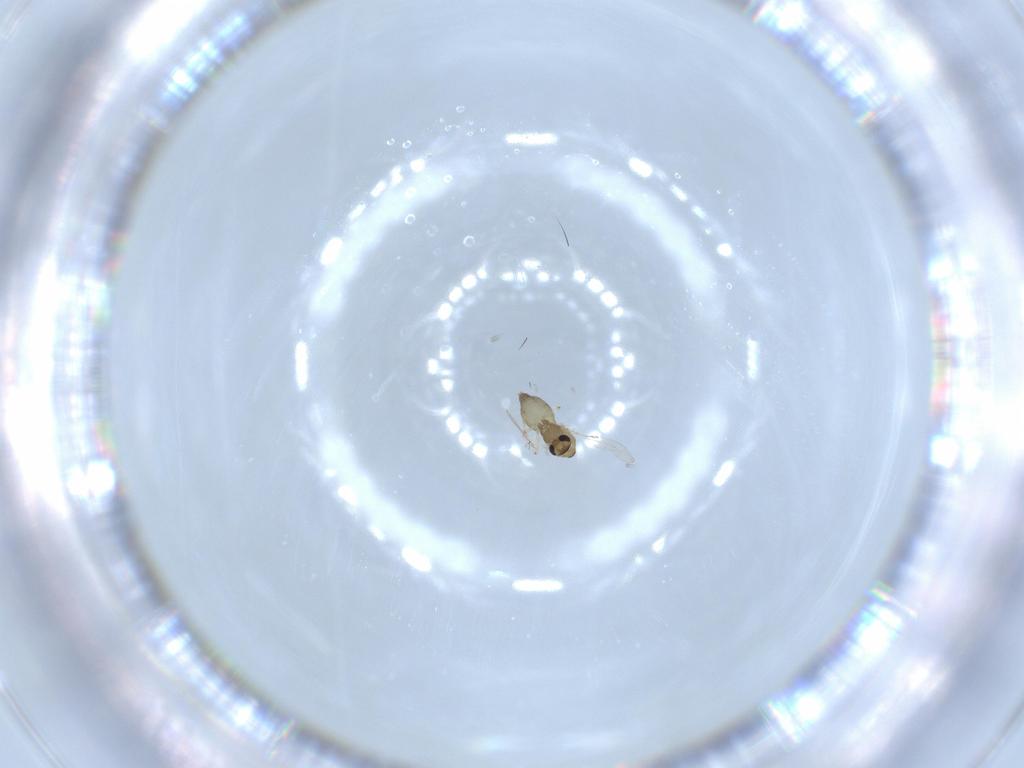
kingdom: Animalia
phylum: Arthropoda
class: Insecta
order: Diptera
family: Chironomidae
